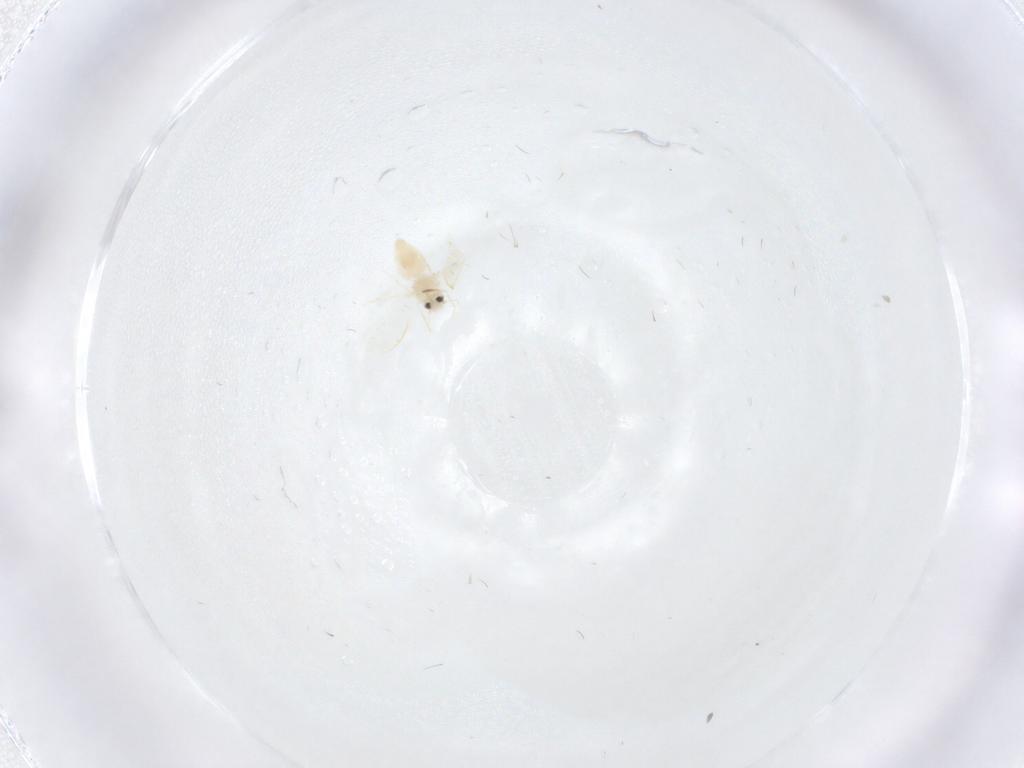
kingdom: Animalia
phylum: Arthropoda
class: Insecta
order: Hemiptera
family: Aleyrodidae
